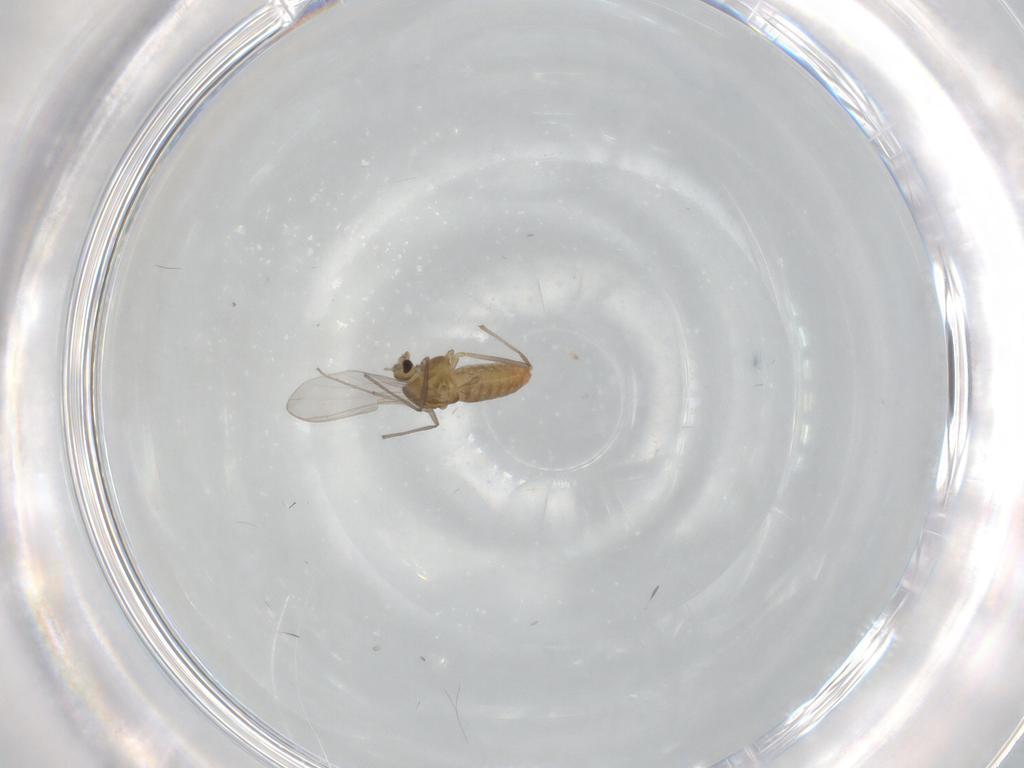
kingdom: Animalia
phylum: Arthropoda
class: Insecta
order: Diptera
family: Chironomidae
